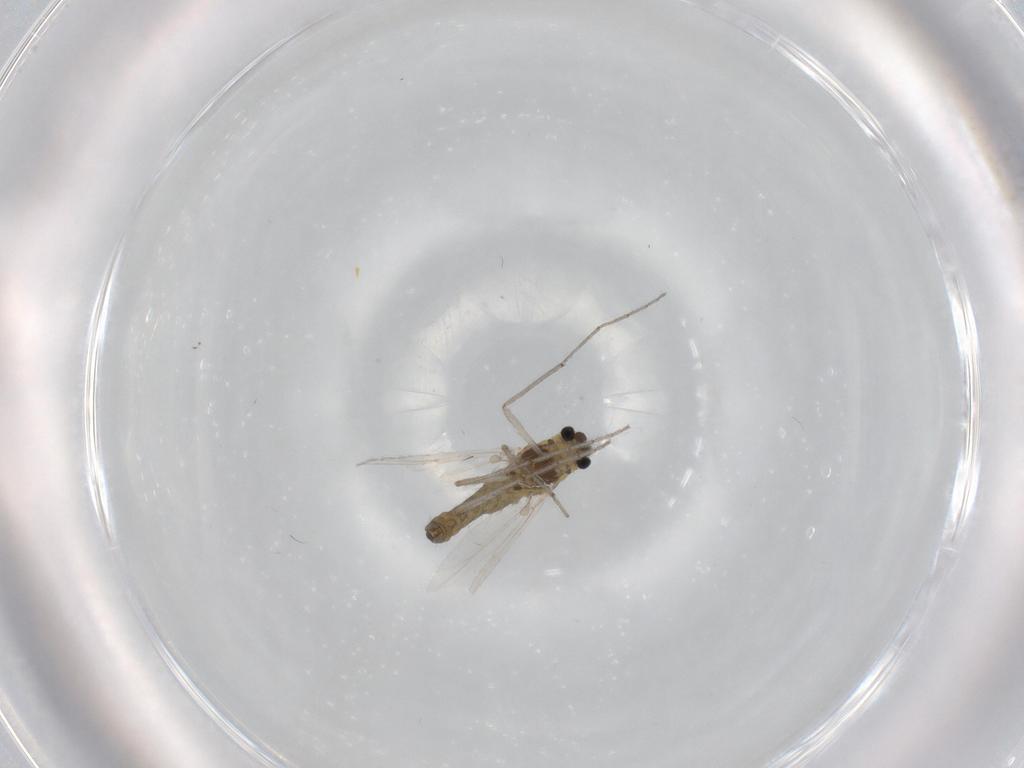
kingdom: Animalia
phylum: Arthropoda
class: Insecta
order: Diptera
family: Chironomidae
